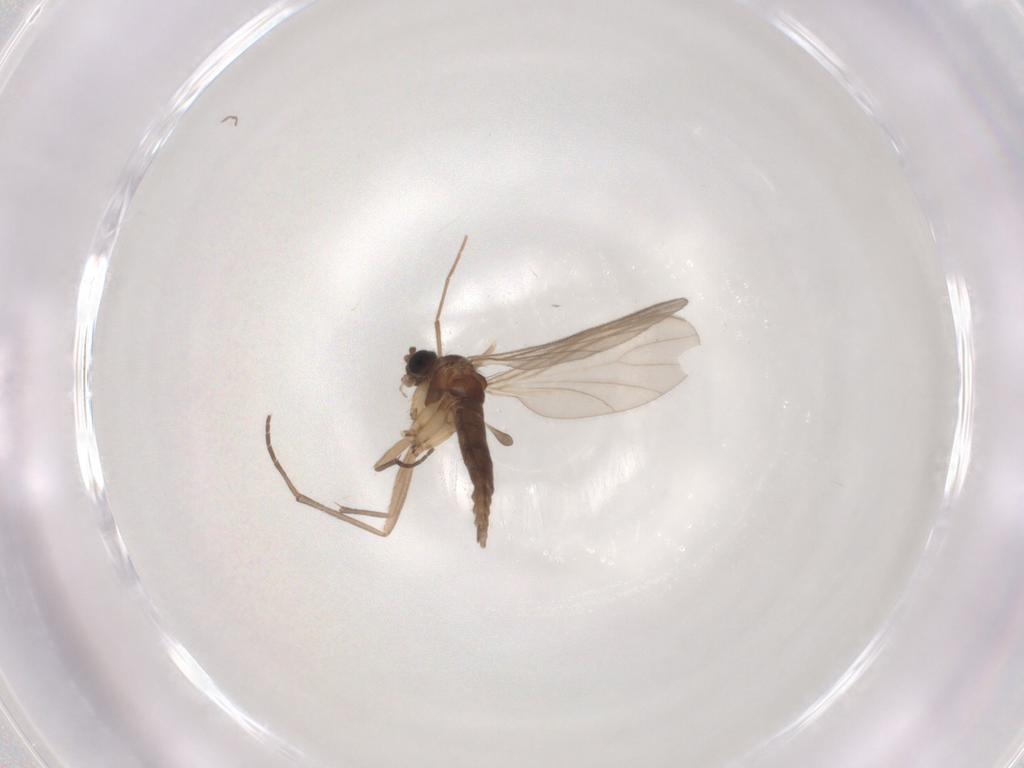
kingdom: Animalia
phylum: Arthropoda
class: Insecta
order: Diptera
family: Sciaridae
